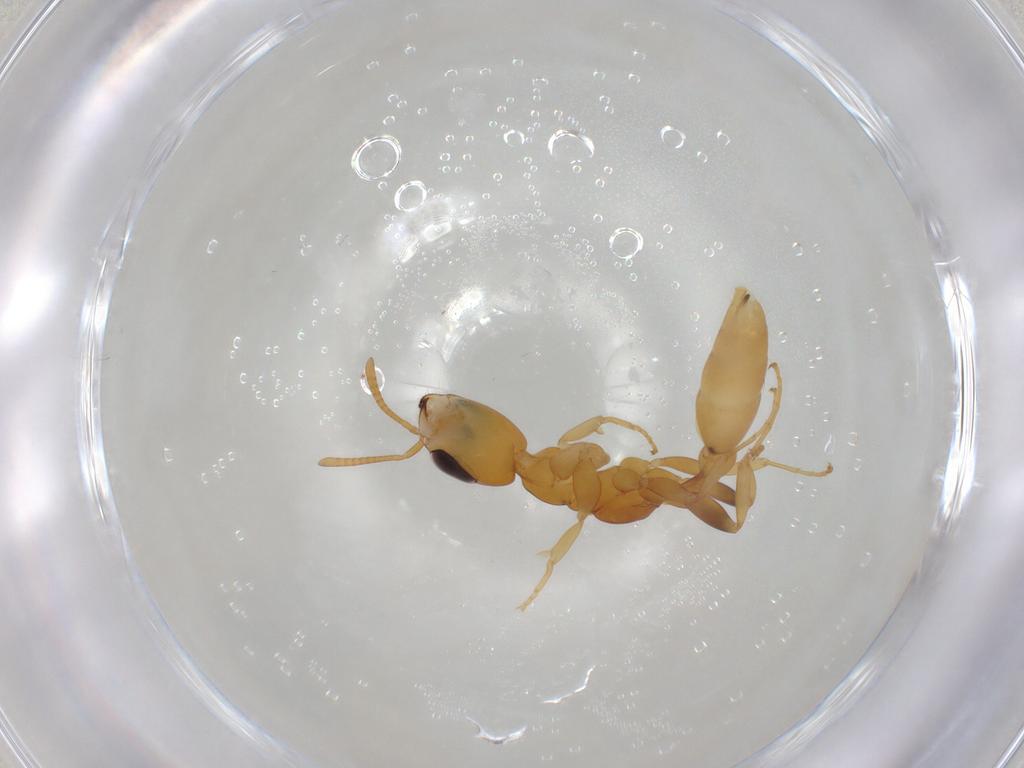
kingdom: Animalia
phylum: Arthropoda
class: Insecta
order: Hymenoptera
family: Formicidae
